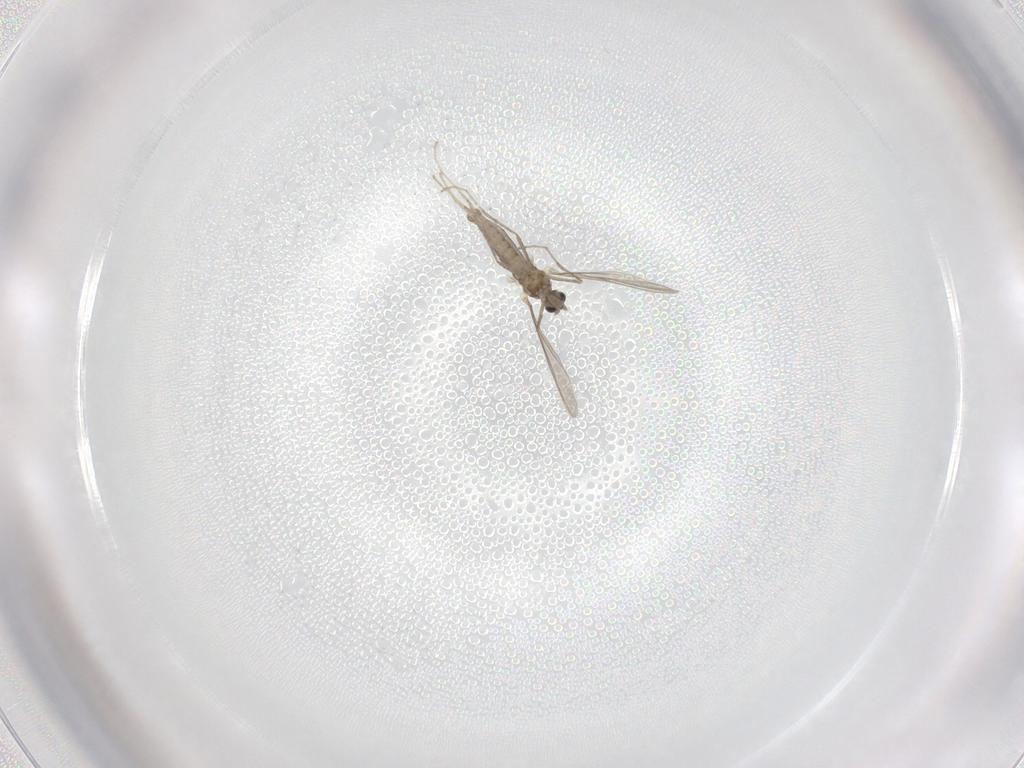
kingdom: Animalia
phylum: Arthropoda
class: Insecta
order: Diptera
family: Cecidomyiidae
